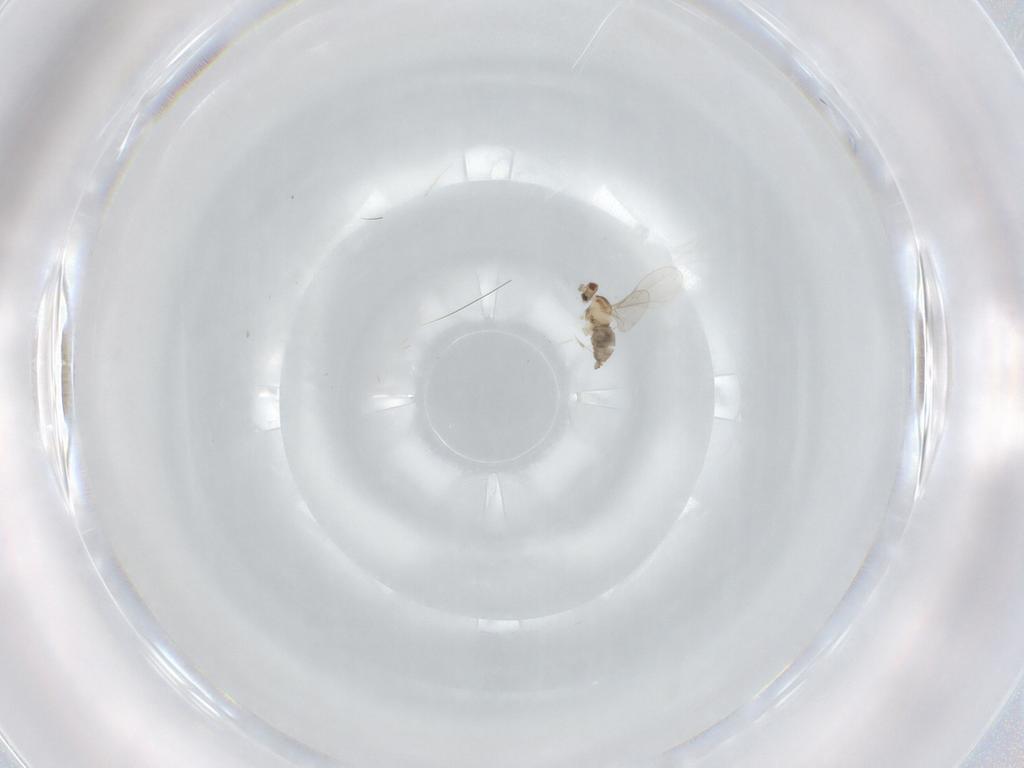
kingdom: Animalia
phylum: Arthropoda
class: Insecta
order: Diptera
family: Cecidomyiidae
